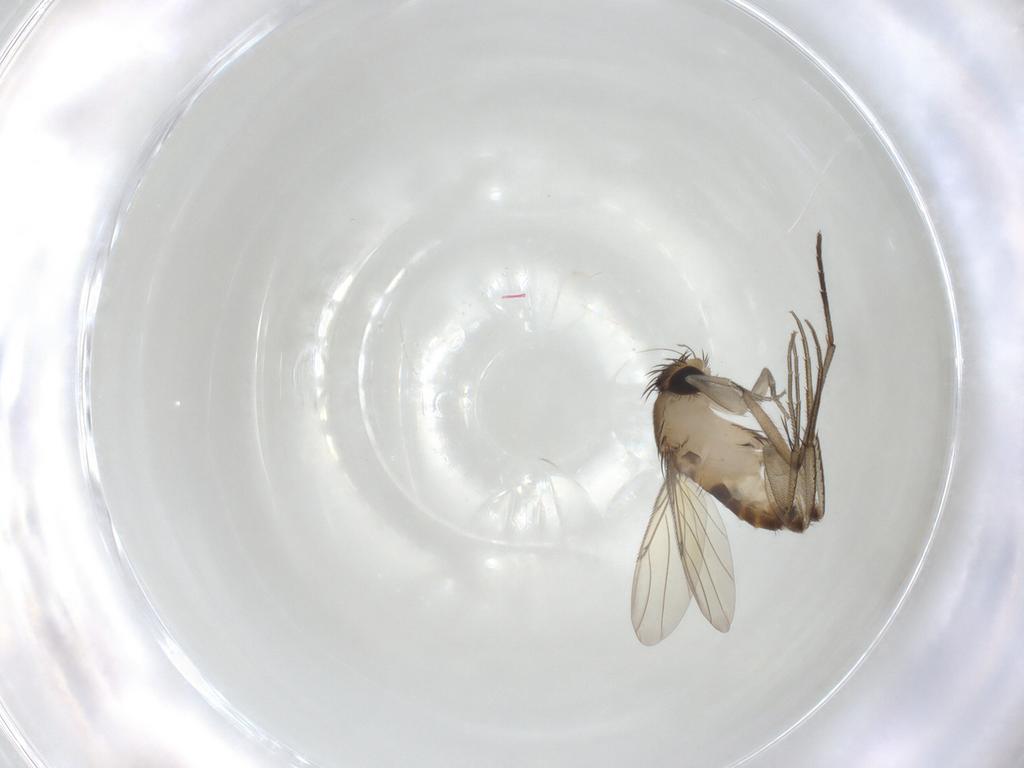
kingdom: Animalia
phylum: Arthropoda
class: Insecta
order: Diptera
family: Phoridae
